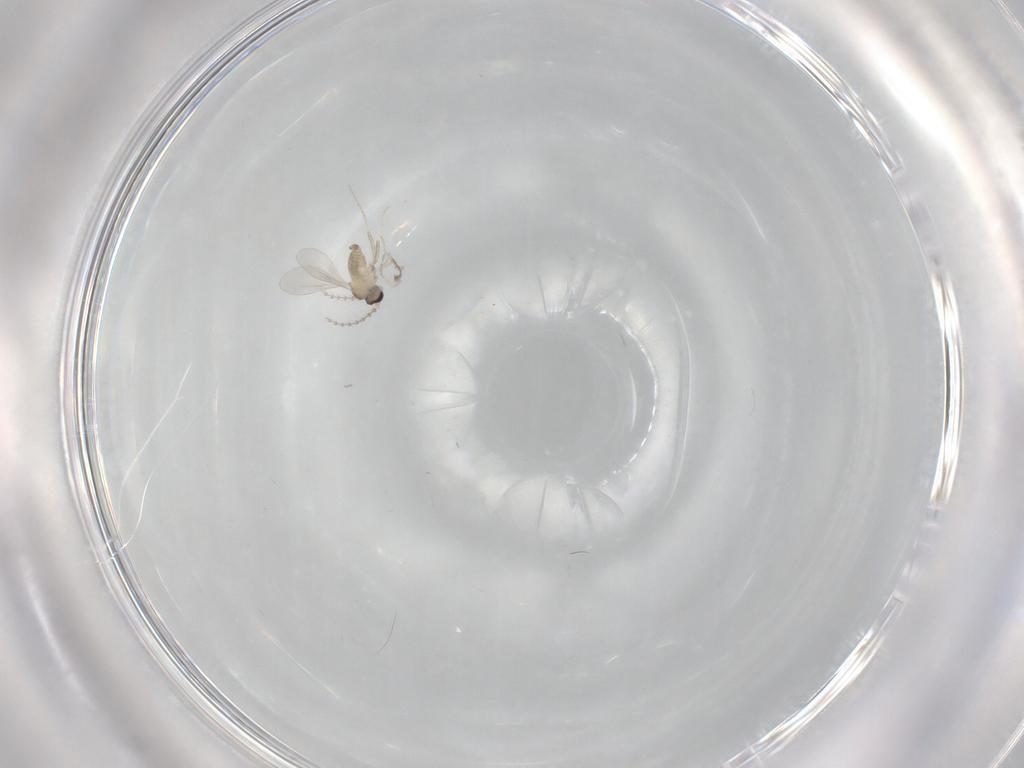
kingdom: Animalia
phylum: Arthropoda
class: Insecta
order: Diptera
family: Cecidomyiidae
